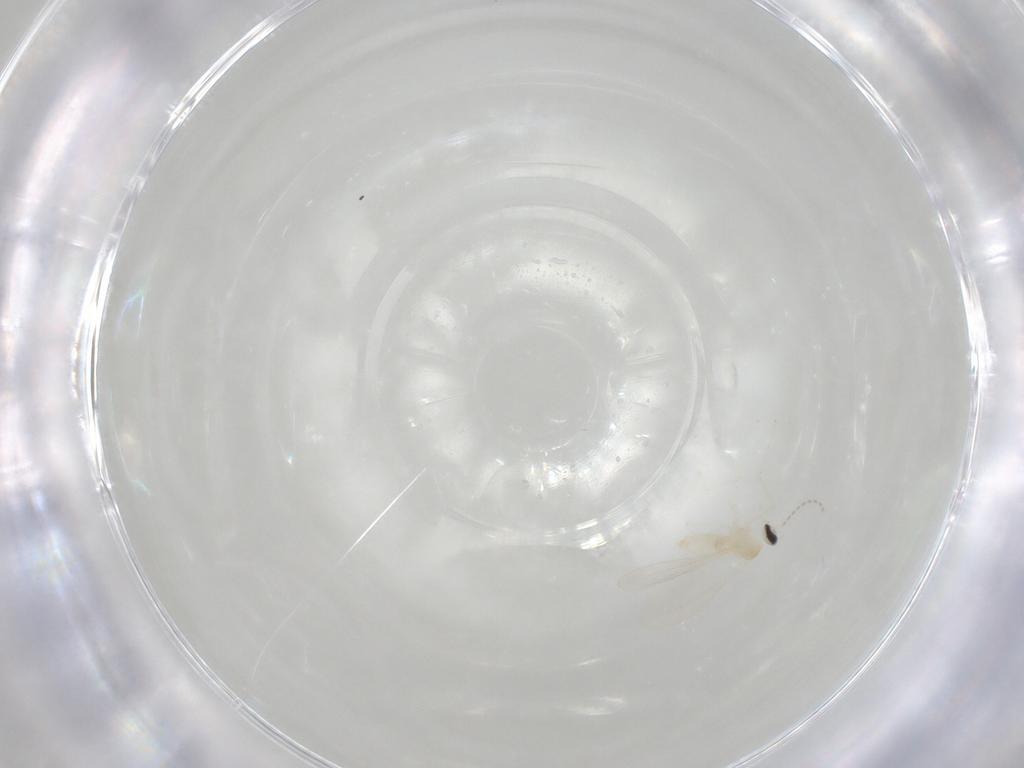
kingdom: Animalia
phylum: Arthropoda
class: Insecta
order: Diptera
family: Cecidomyiidae
